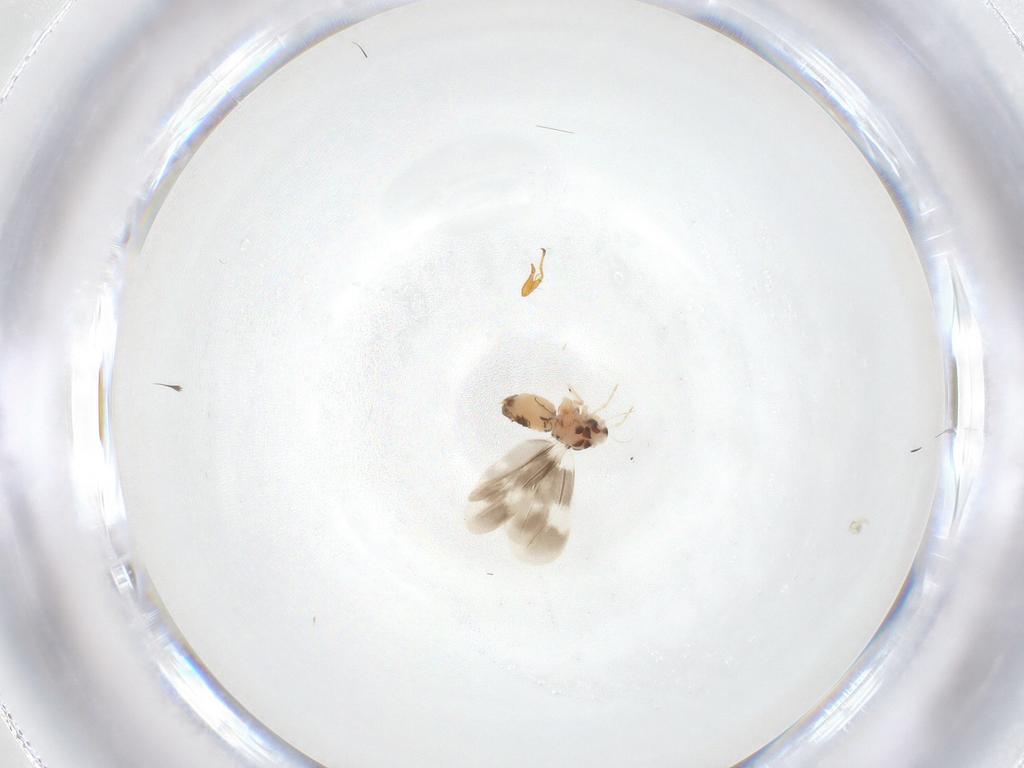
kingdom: Animalia
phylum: Arthropoda
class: Insecta
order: Hemiptera
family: Aleyrodidae
